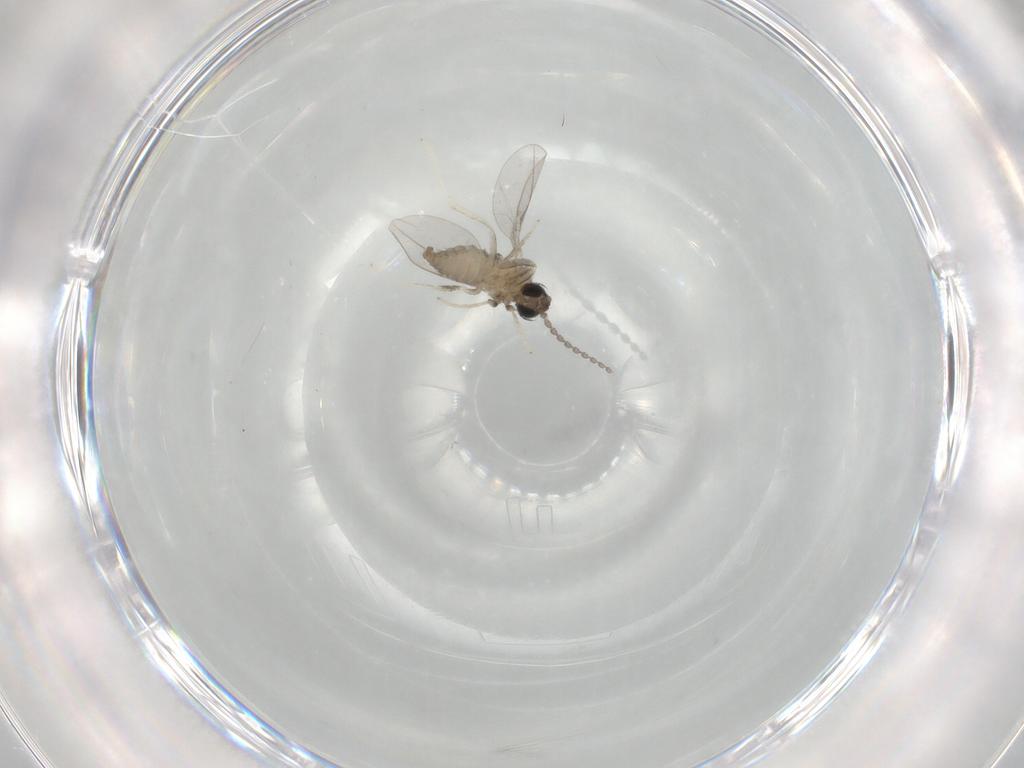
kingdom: Animalia
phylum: Arthropoda
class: Insecta
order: Diptera
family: Cecidomyiidae
